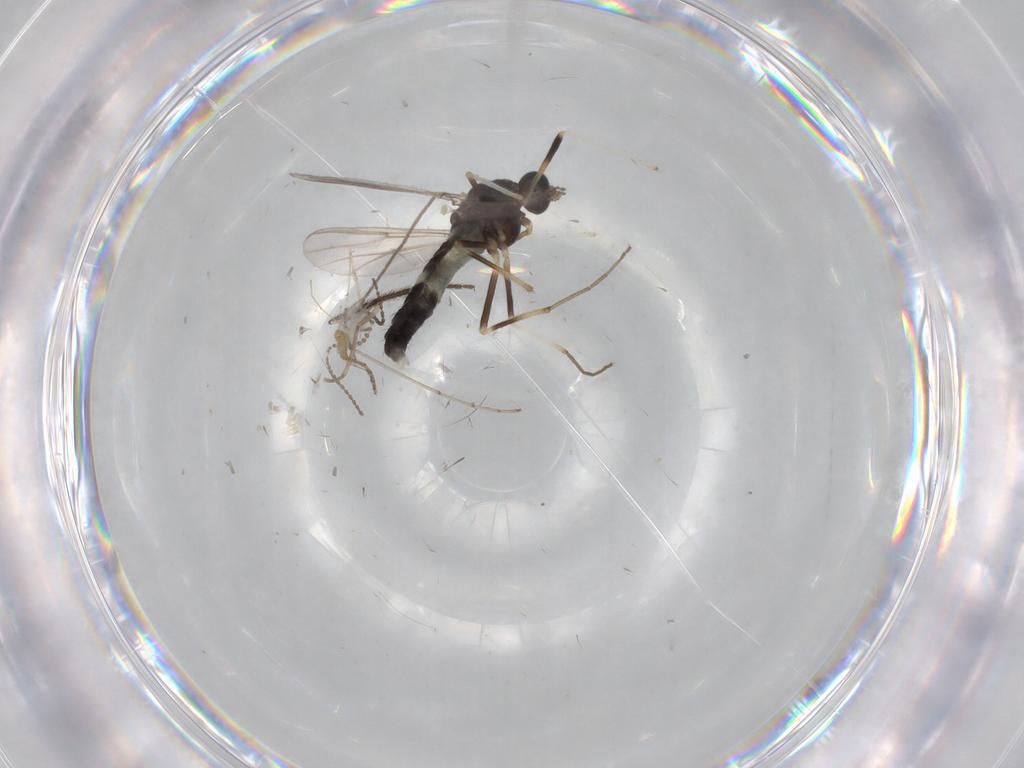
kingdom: Animalia
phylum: Arthropoda
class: Insecta
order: Diptera
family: Chironomidae
